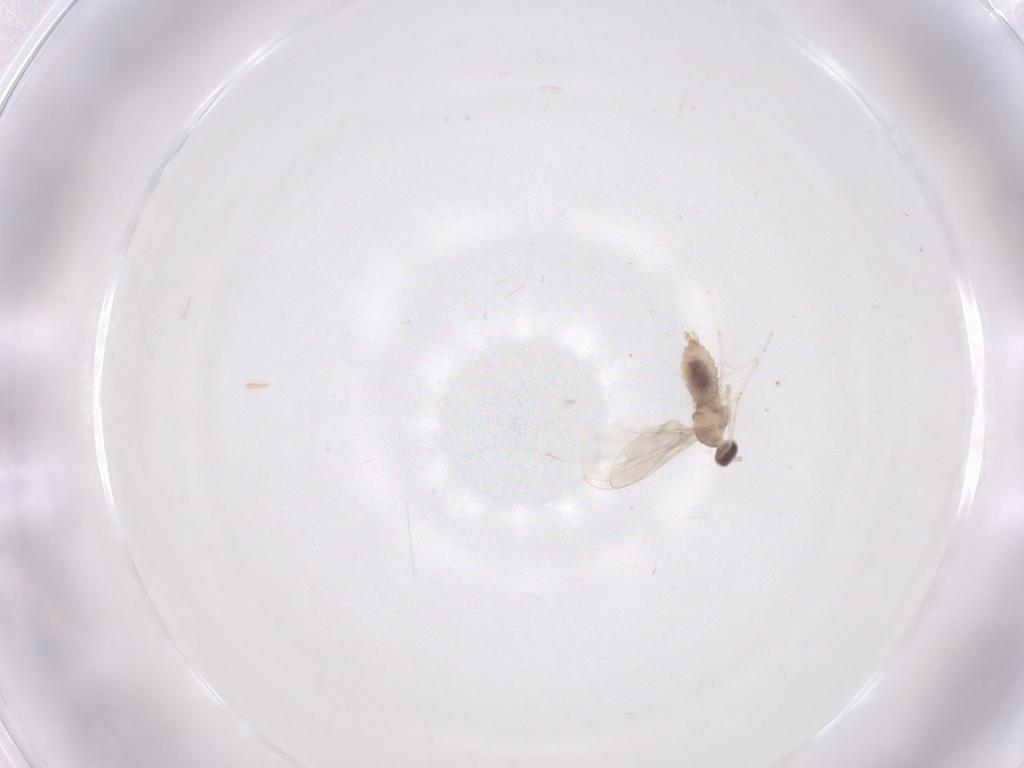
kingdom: Animalia
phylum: Arthropoda
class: Insecta
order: Diptera
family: Cecidomyiidae
